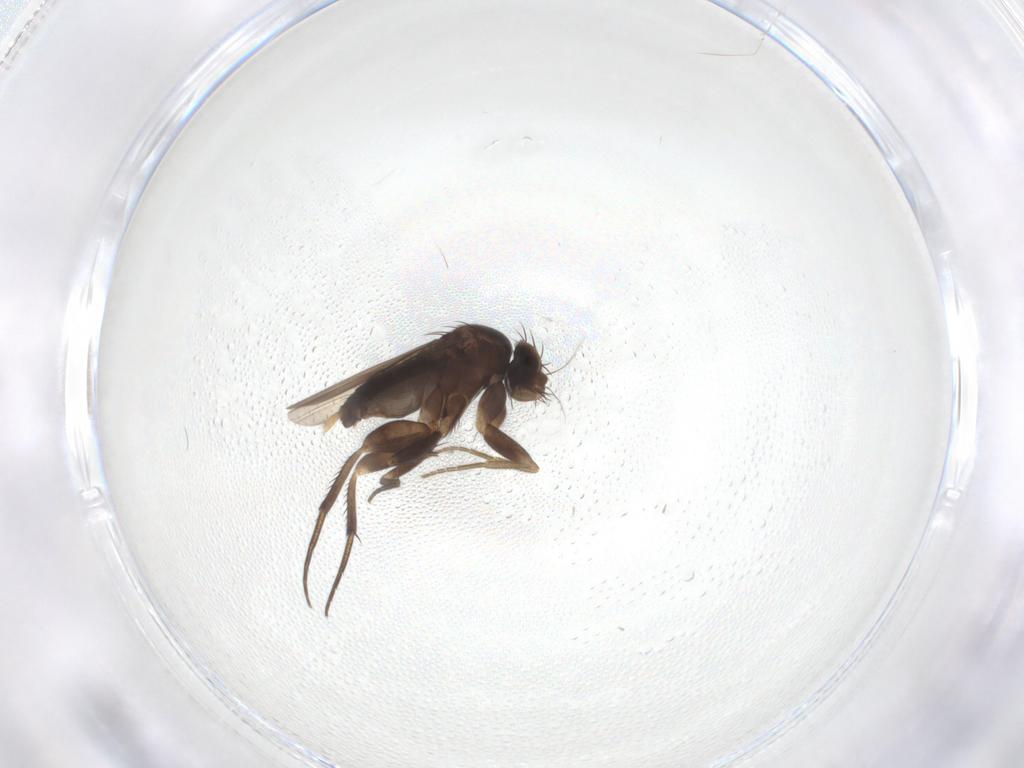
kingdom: Animalia
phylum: Arthropoda
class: Insecta
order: Diptera
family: Phoridae
